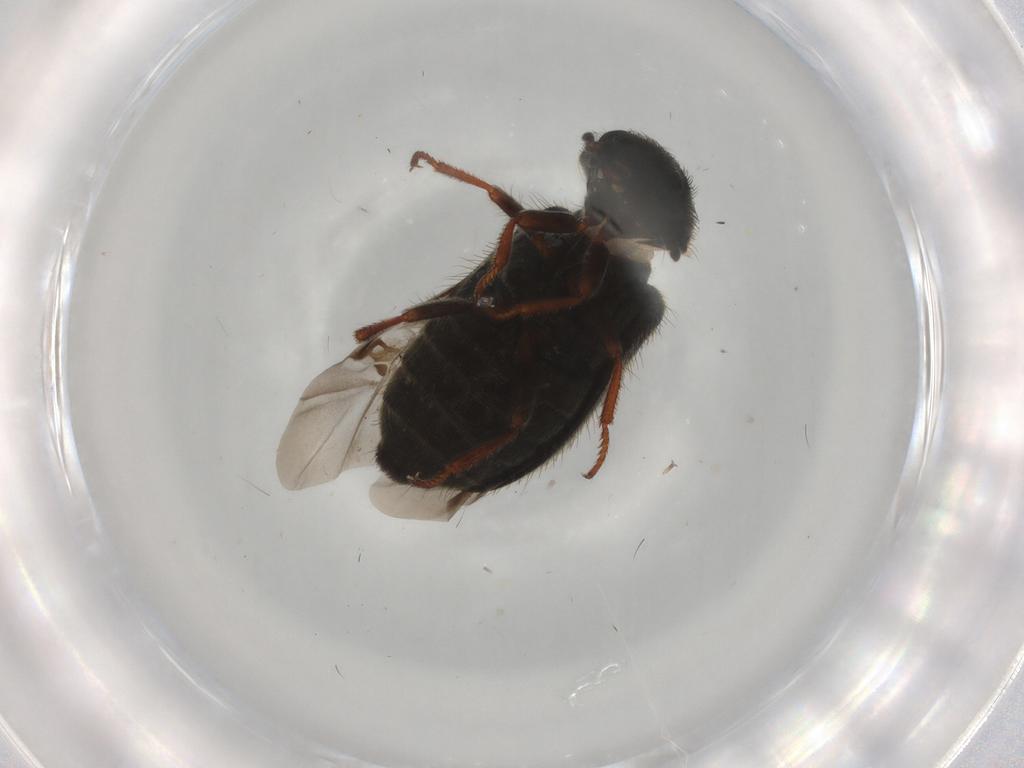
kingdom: Animalia
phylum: Arthropoda
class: Insecta
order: Coleoptera
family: Melyridae
